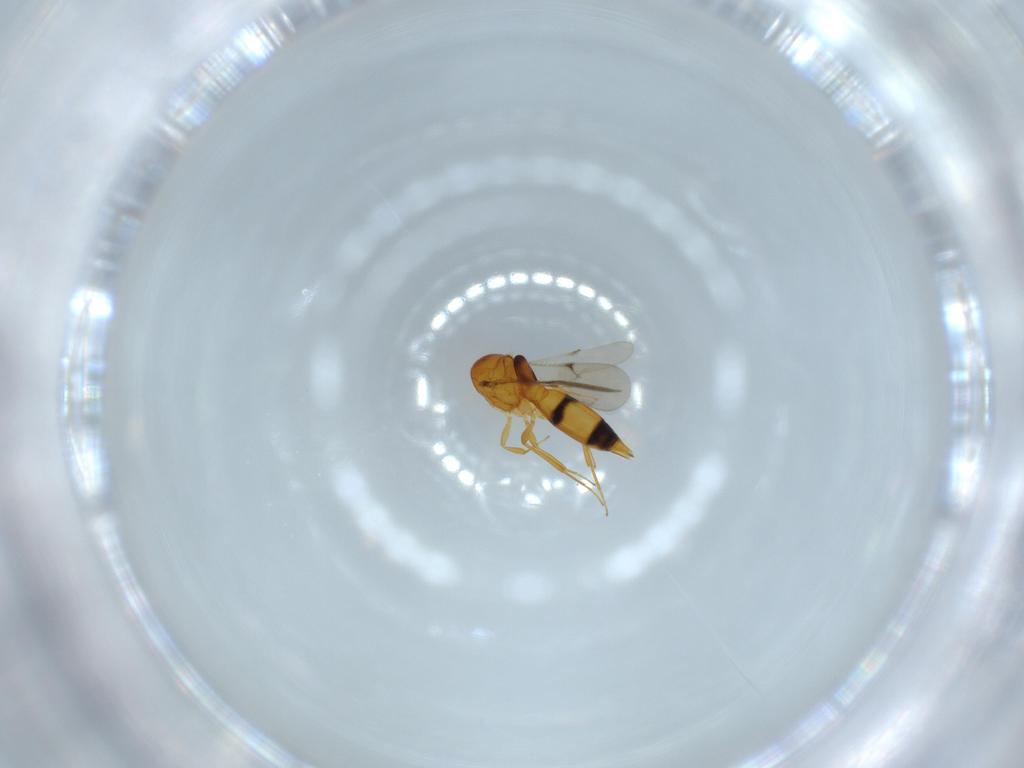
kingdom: Animalia
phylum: Arthropoda
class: Insecta
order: Hymenoptera
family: Scelionidae
